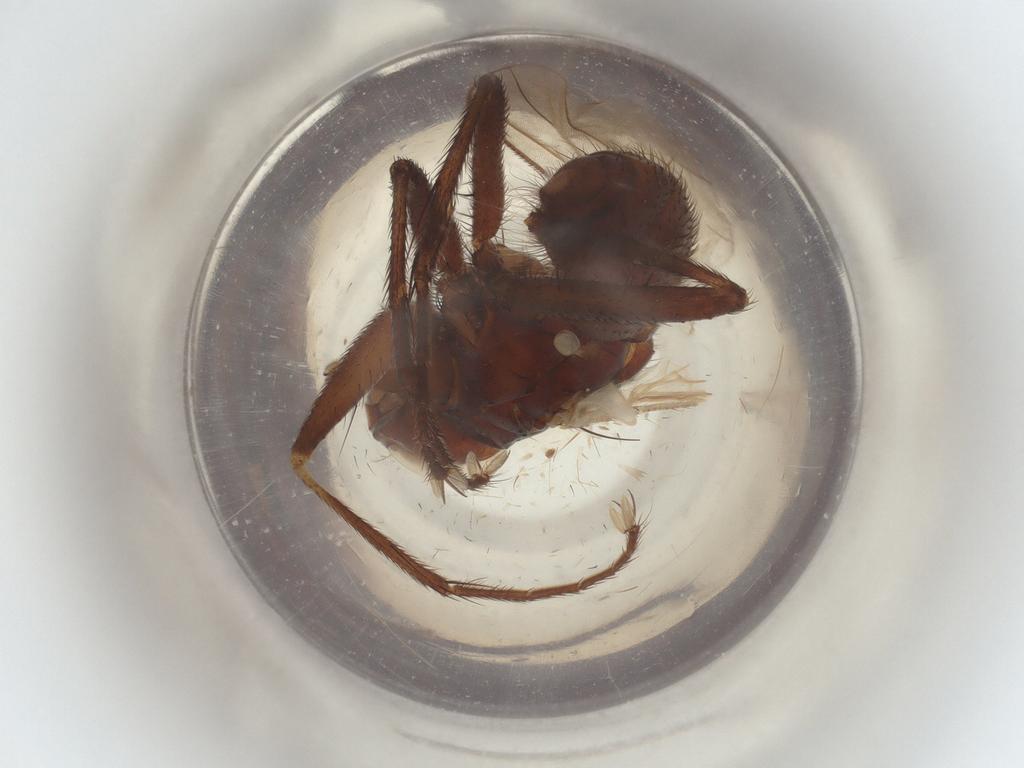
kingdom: Animalia
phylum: Arthropoda
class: Insecta
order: Diptera
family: Muscidae
